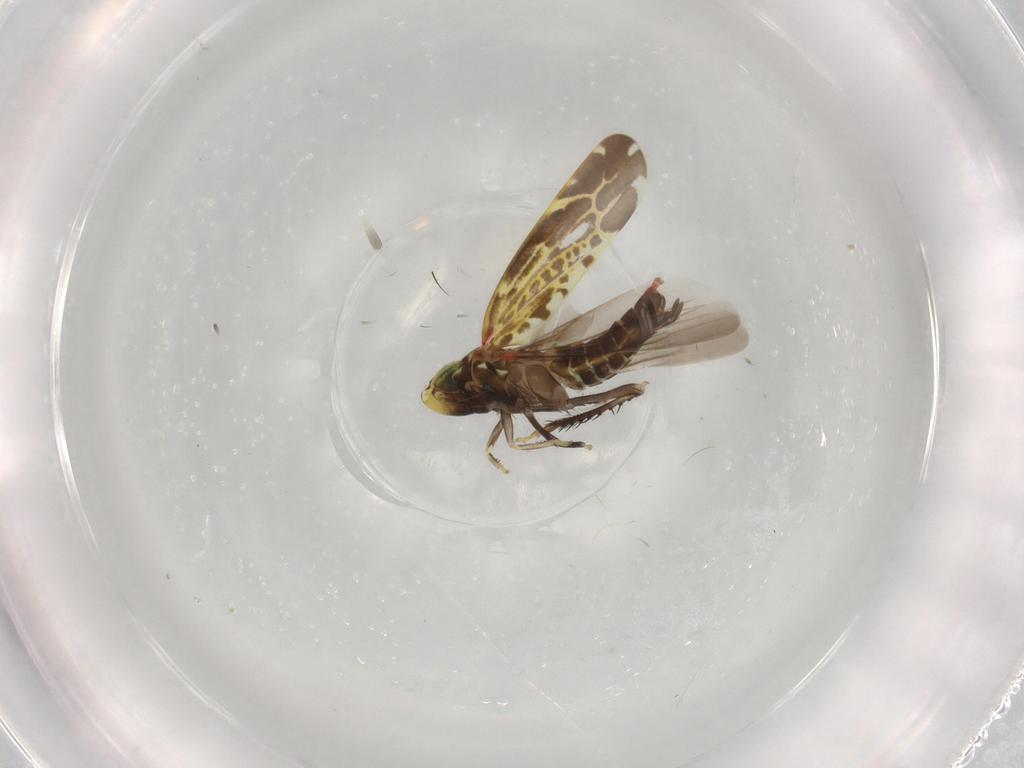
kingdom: Animalia
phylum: Arthropoda
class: Insecta
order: Hemiptera
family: Cicadellidae
